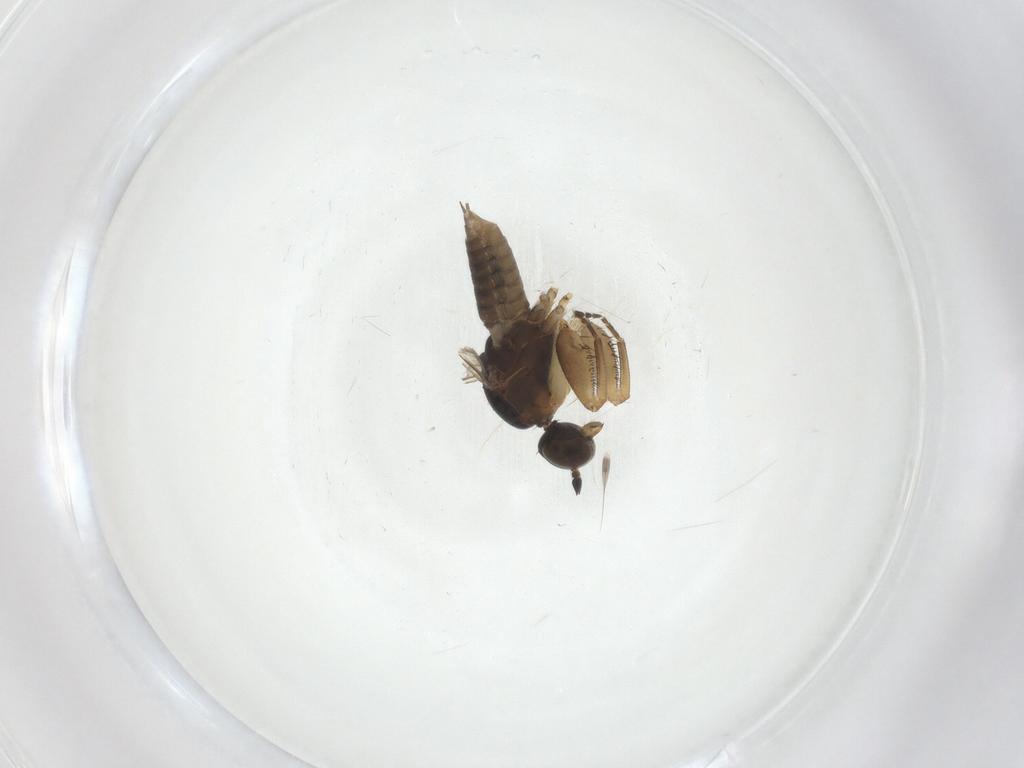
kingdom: Animalia
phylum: Arthropoda
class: Insecta
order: Diptera
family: Empididae
